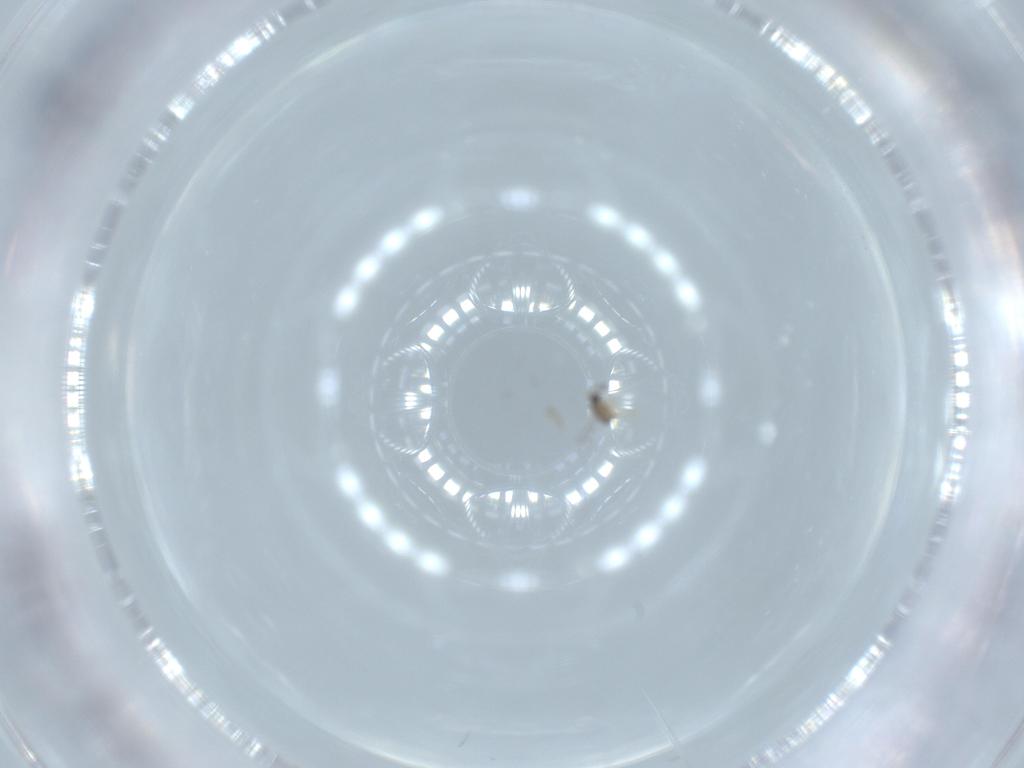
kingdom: Animalia
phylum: Arthropoda
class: Insecta
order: Hymenoptera
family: Mymaridae
